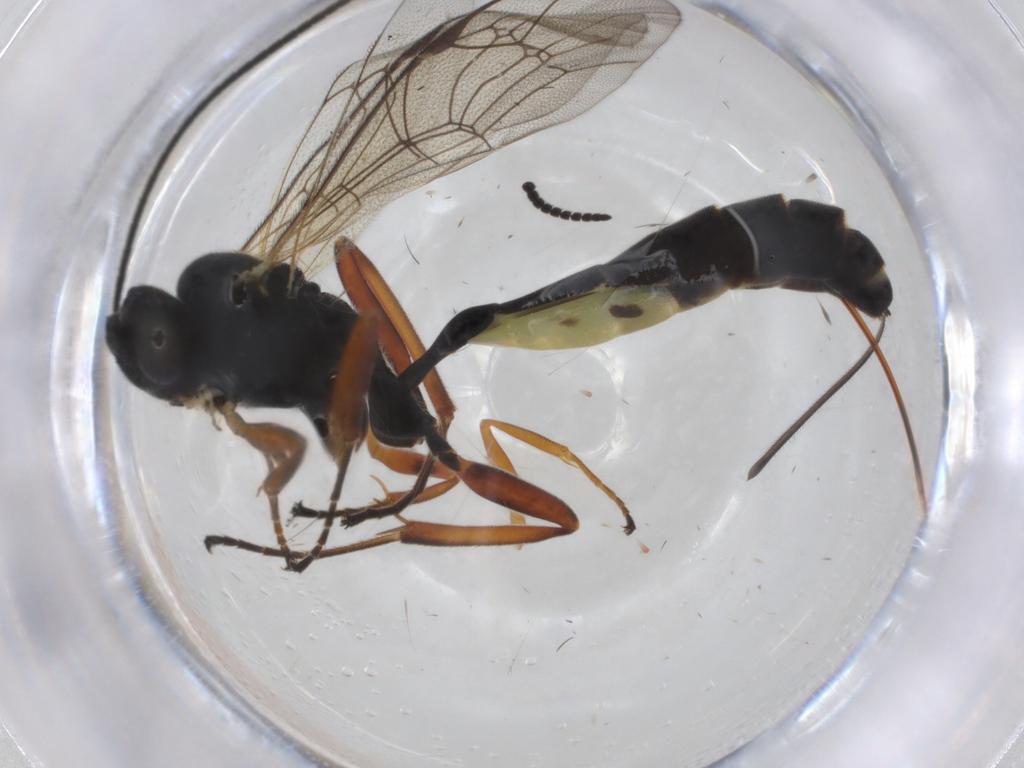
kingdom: Animalia
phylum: Arthropoda
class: Insecta
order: Hymenoptera
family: Ichneumonidae
